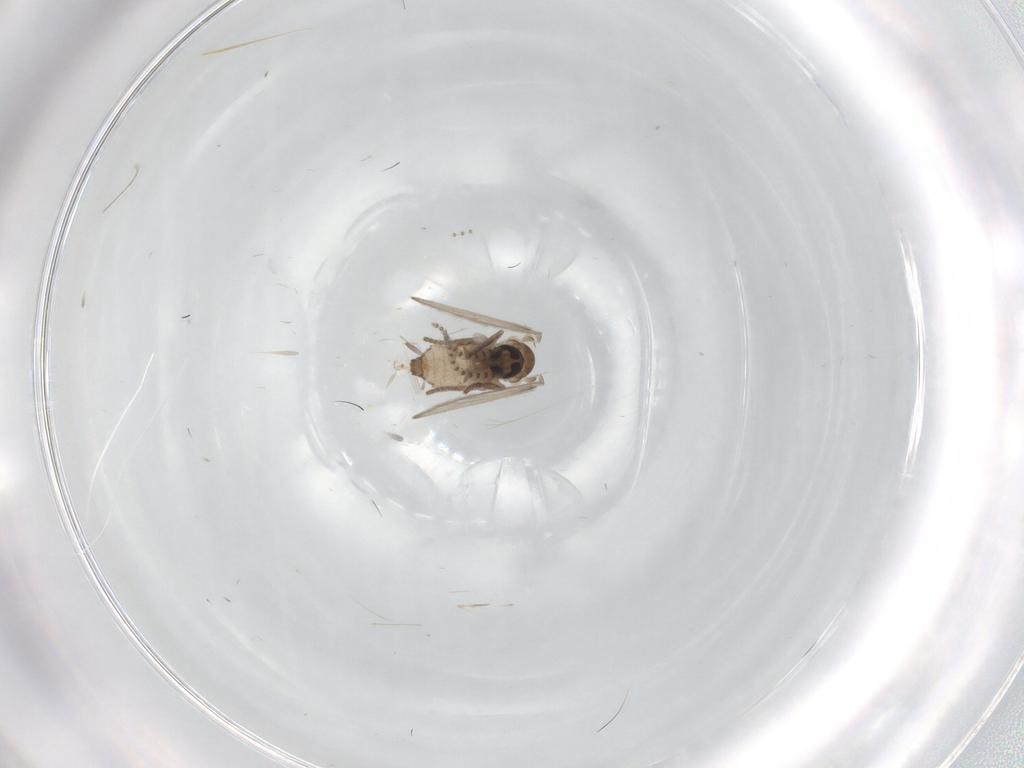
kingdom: Animalia
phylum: Arthropoda
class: Insecta
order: Diptera
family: Psychodidae
